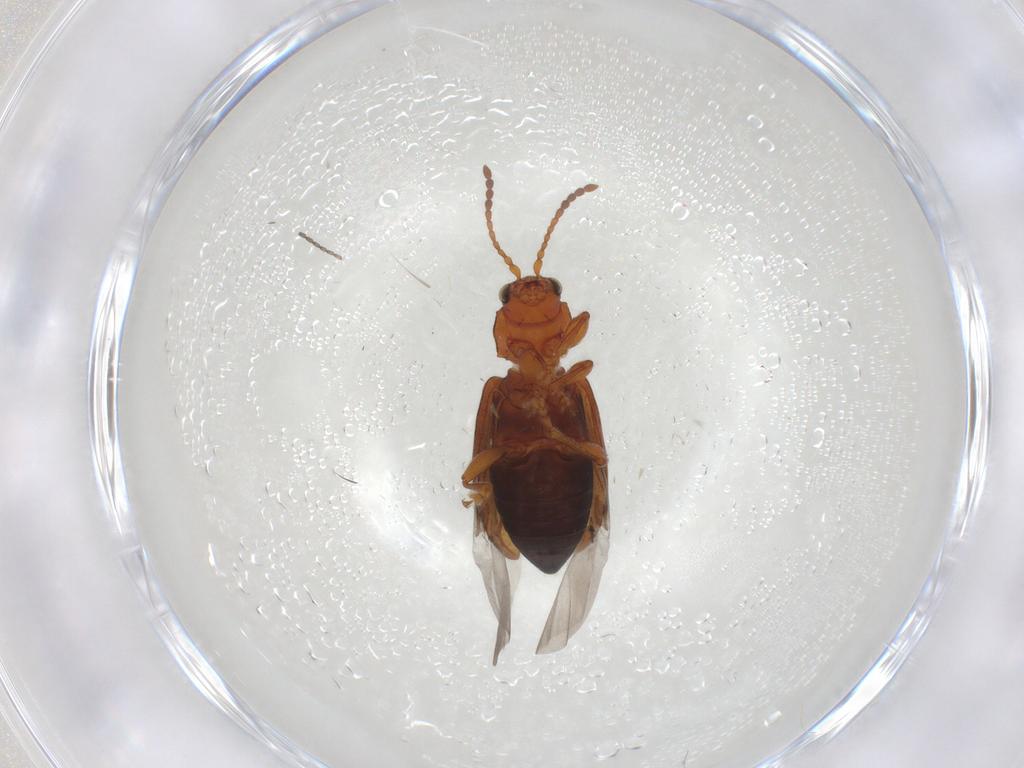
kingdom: Animalia
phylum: Arthropoda
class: Insecta
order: Coleoptera
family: Chrysomelidae
